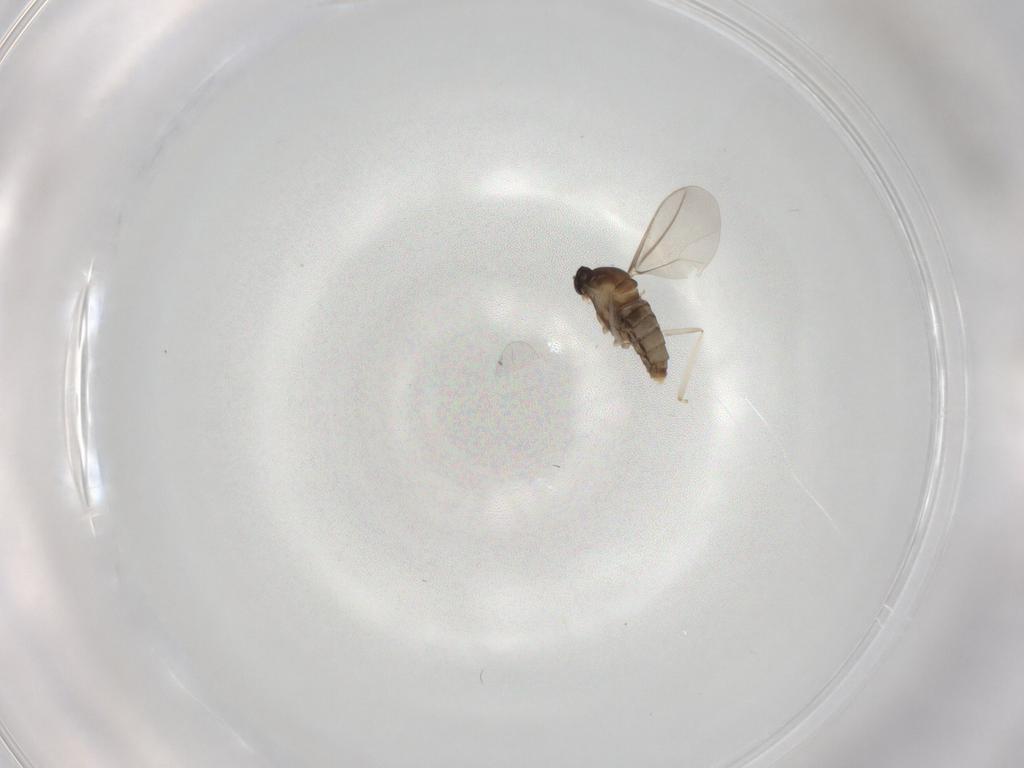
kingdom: Animalia
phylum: Arthropoda
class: Insecta
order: Diptera
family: Cecidomyiidae
